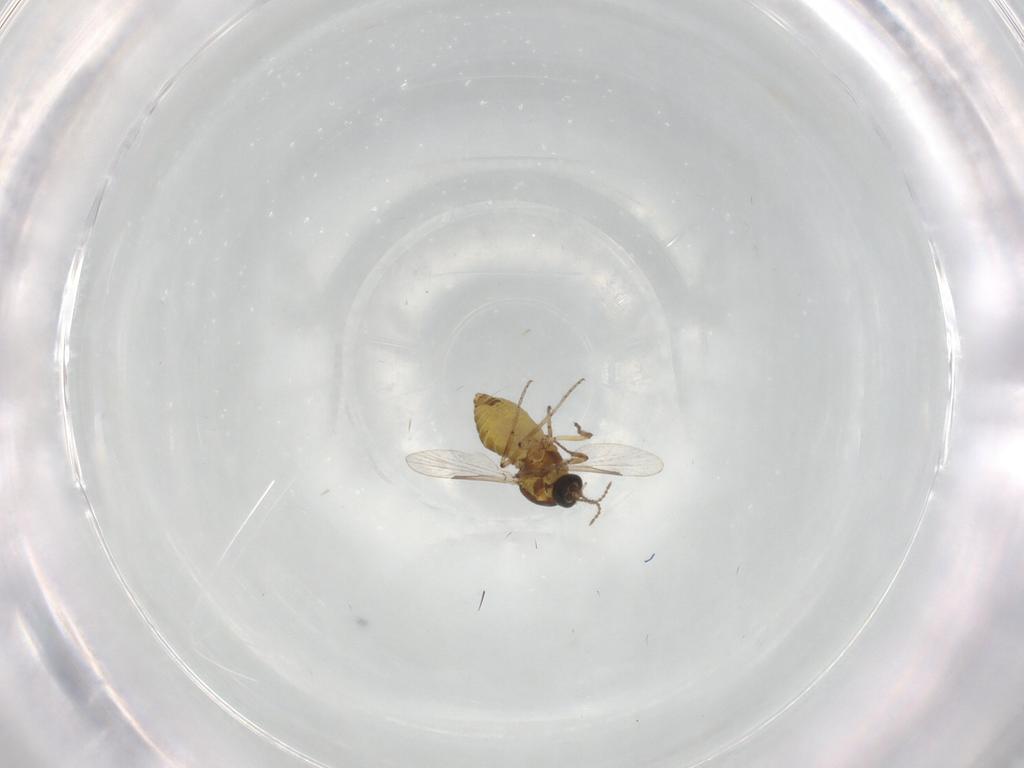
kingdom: Animalia
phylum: Arthropoda
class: Insecta
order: Diptera
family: Ceratopogonidae
